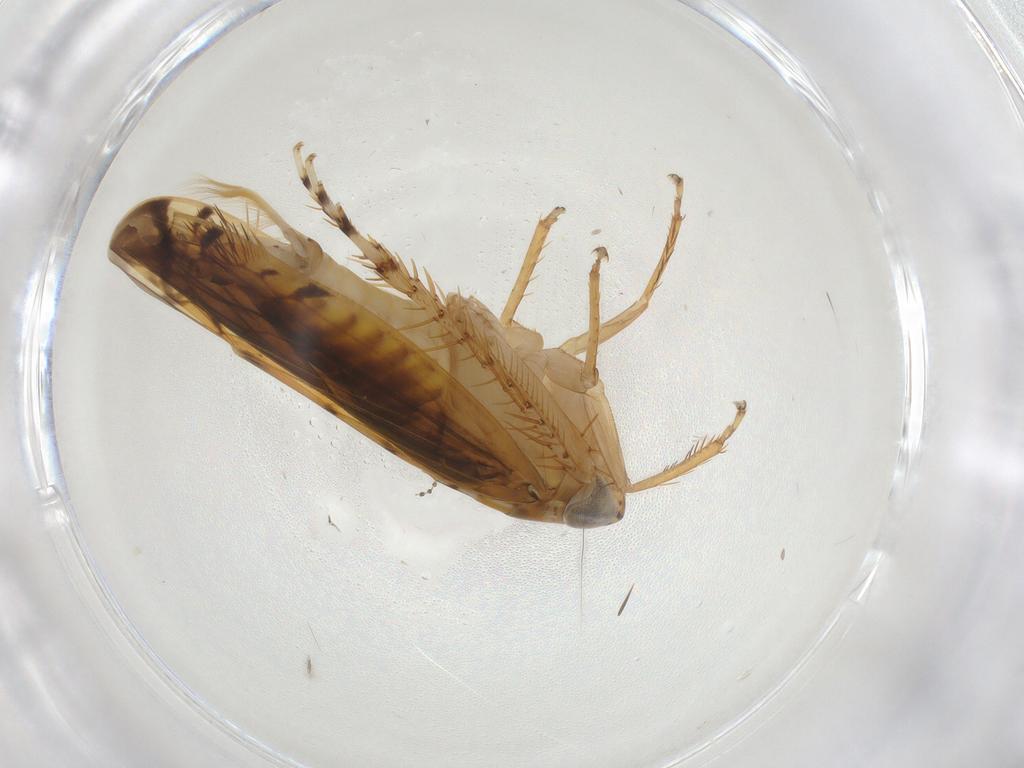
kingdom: Animalia
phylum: Arthropoda
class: Insecta
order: Hemiptera
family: Cicadellidae
